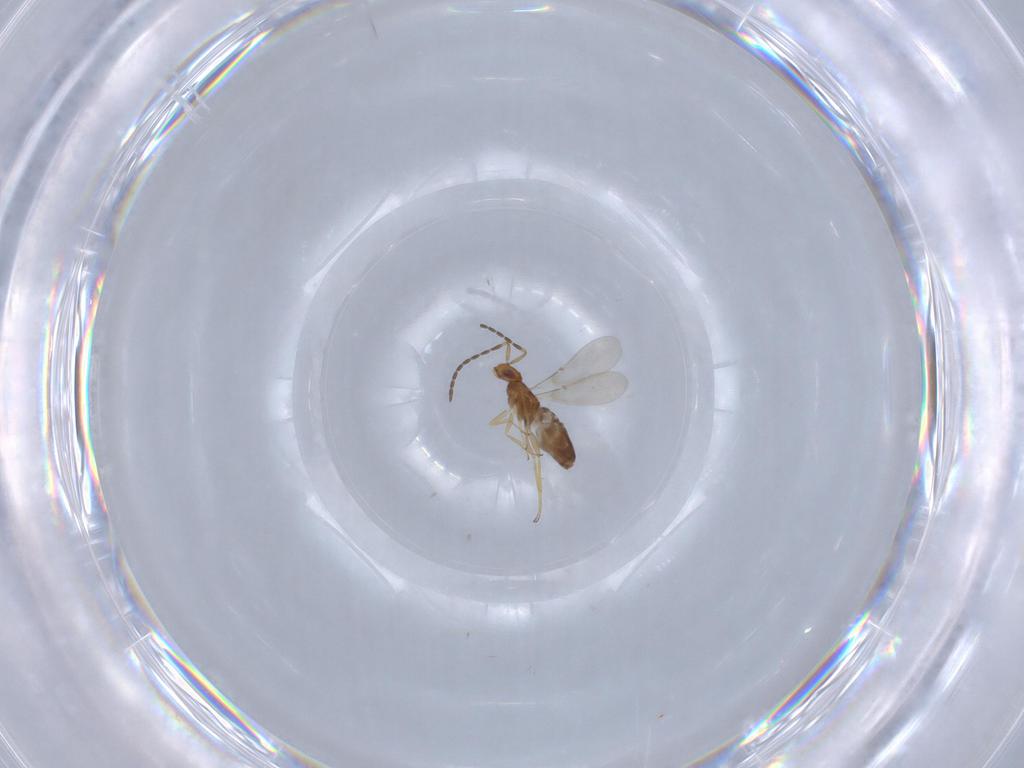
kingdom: Animalia
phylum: Arthropoda
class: Insecta
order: Hymenoptera
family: Encyrtidae
